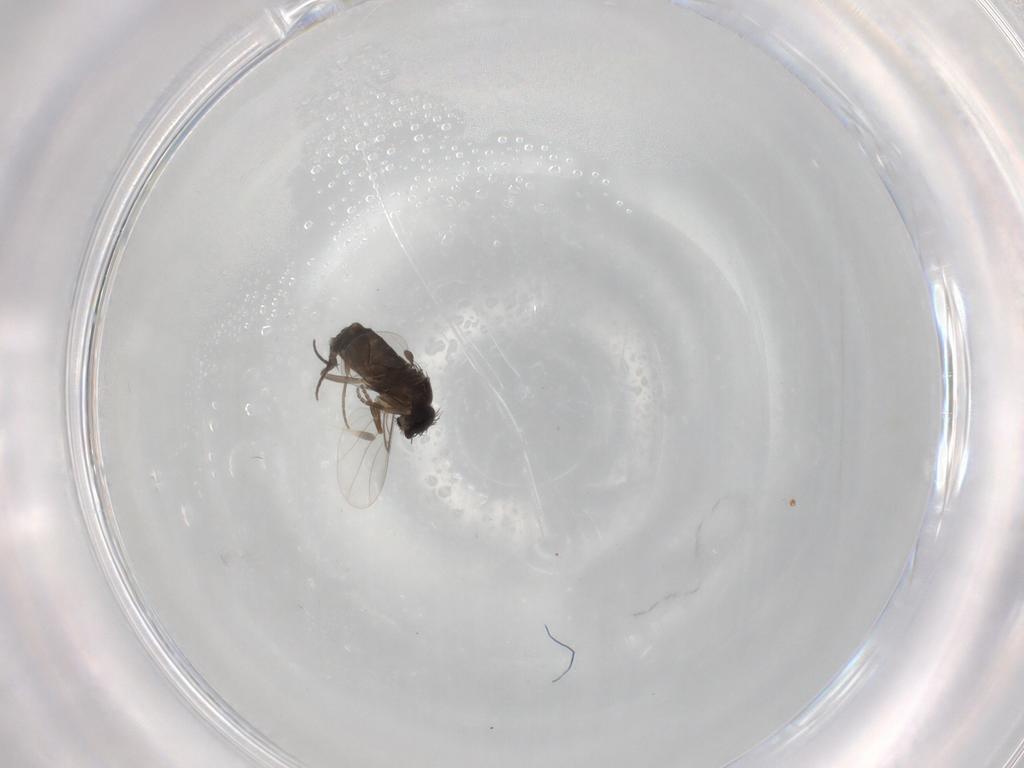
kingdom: Animalia
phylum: Arthropoda
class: Insecta
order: Diptera
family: Phoridae
